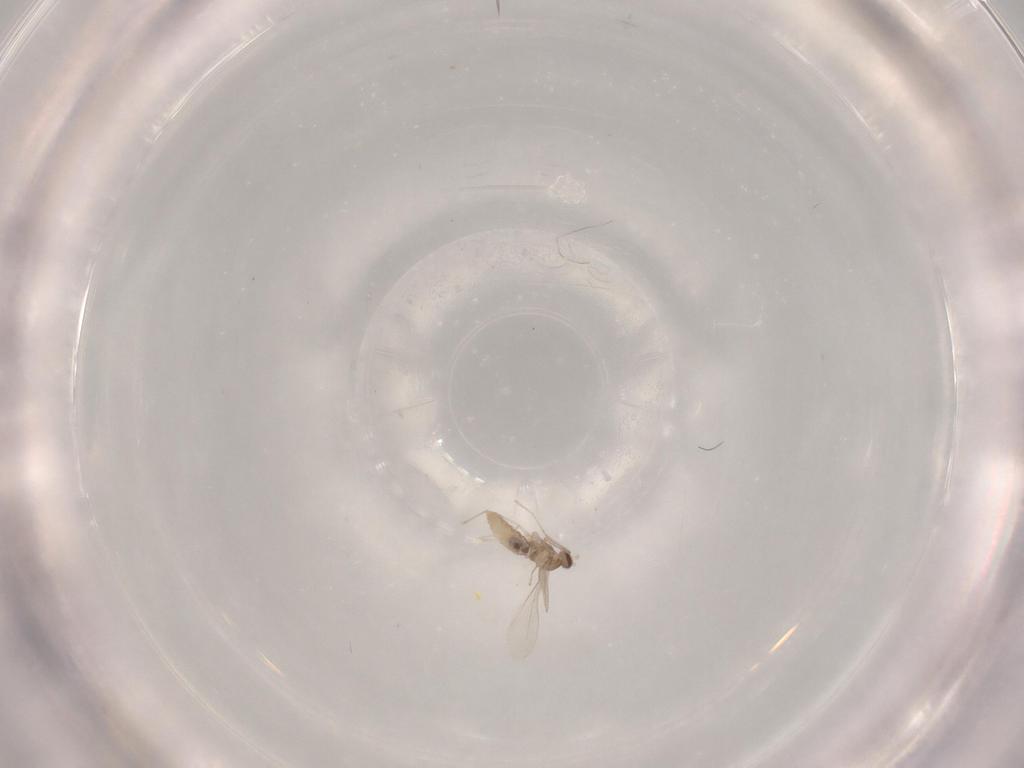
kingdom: Animalia
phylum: Arthropoda
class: Insecta
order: Diptera
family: Cecidomyiidae
